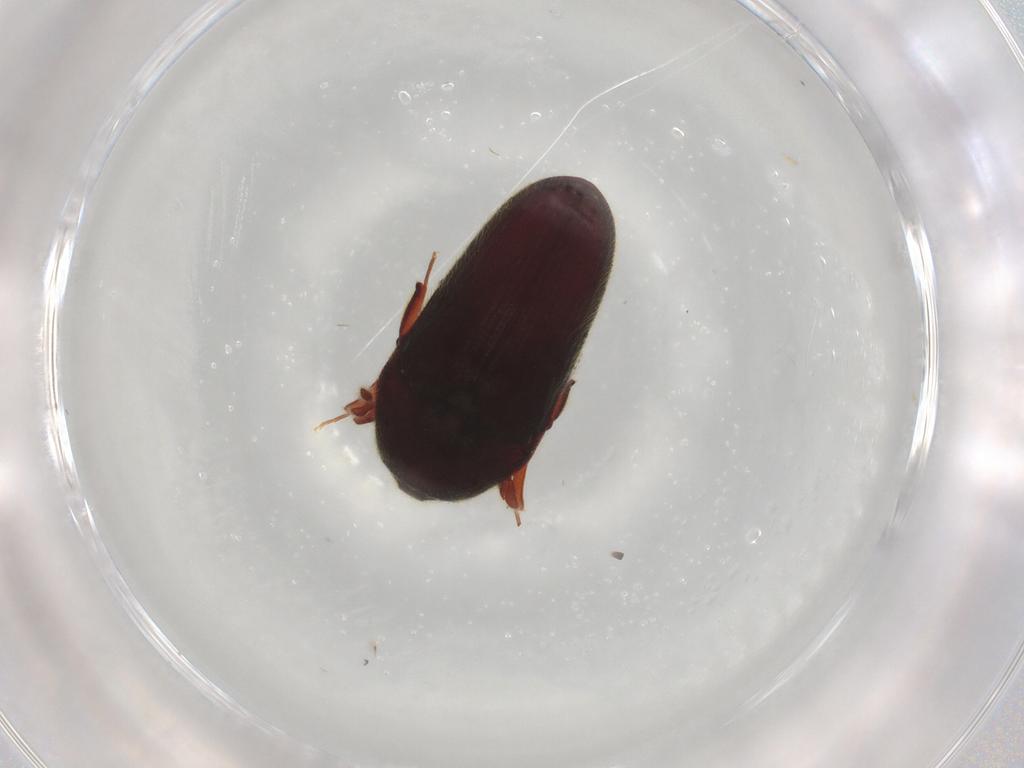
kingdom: Animalia
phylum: Arthropoda
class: Insecta
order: Coleoptera
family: Throscidae
